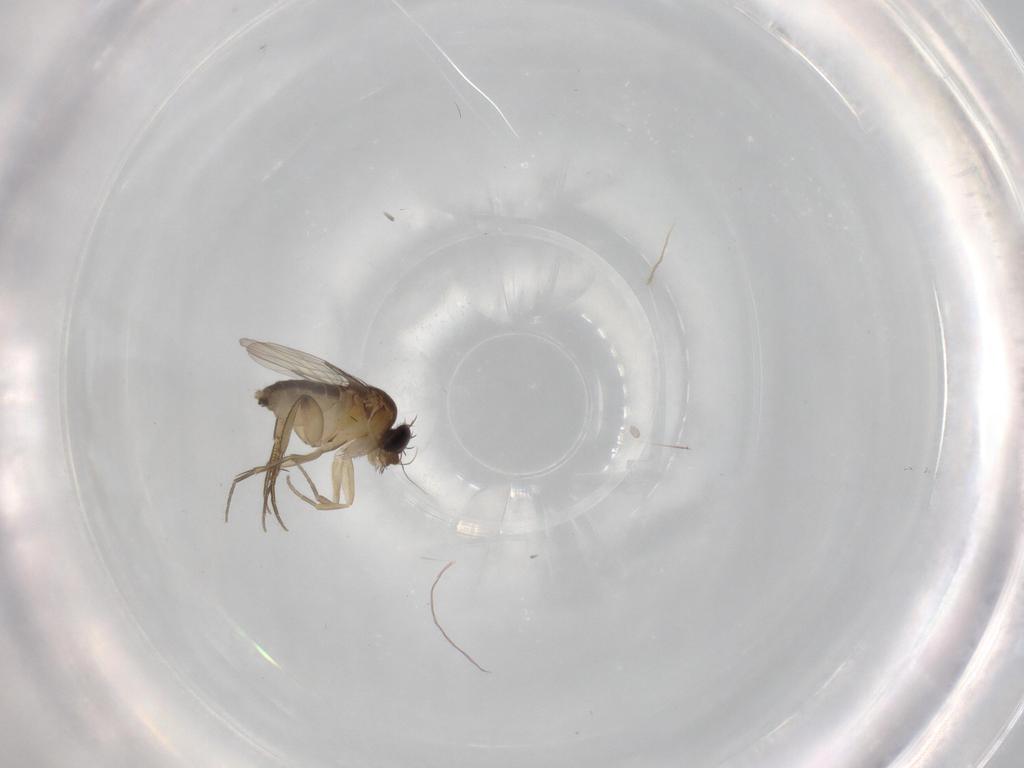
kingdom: Animalia
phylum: Arthropoda
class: Insecta
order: Diptera
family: Phoridae
